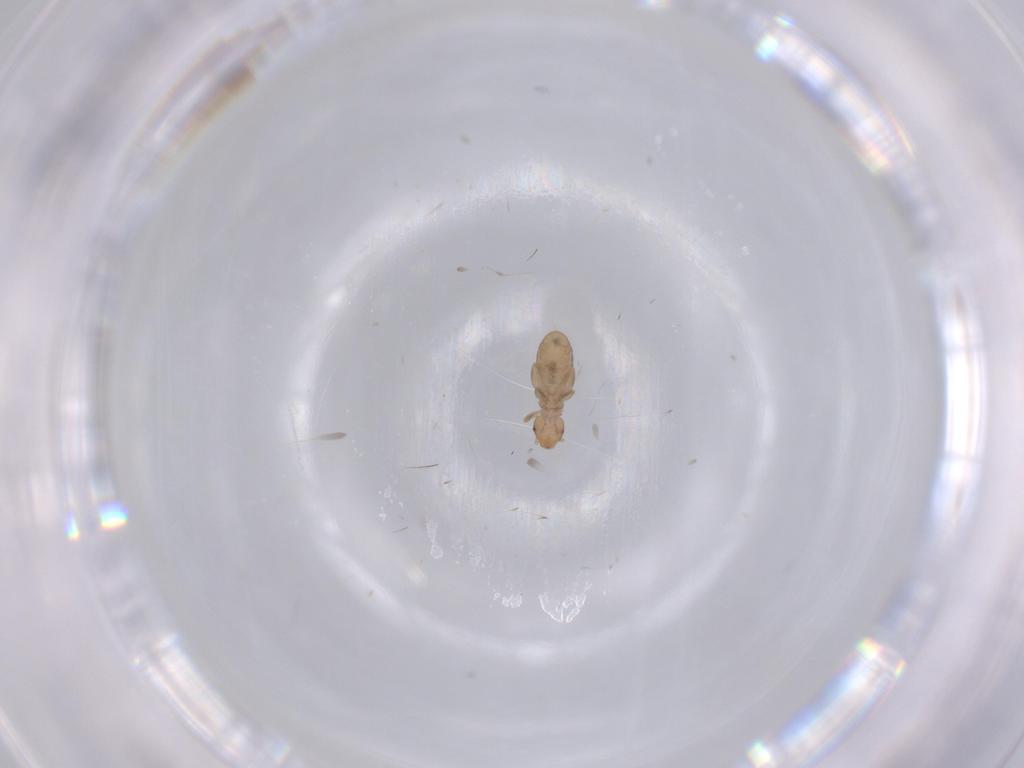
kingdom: Animalia
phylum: Arthropoda
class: Insecta
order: Psocodea
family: Liposcelididae
